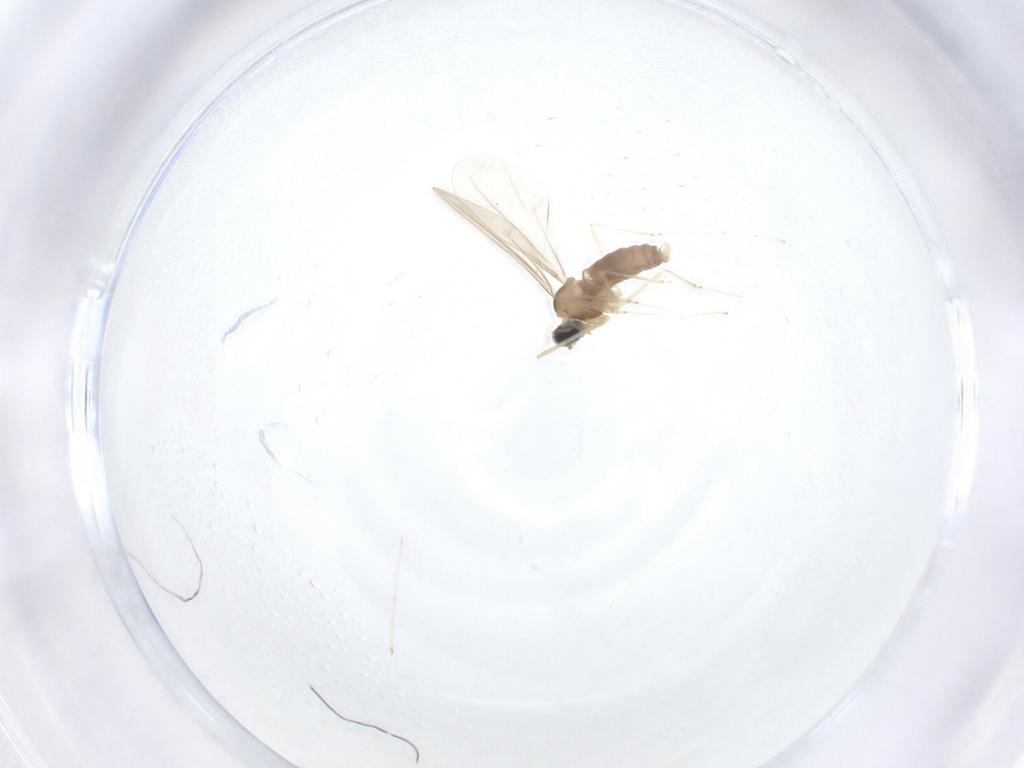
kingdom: Animalia
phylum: Arthropoda
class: Insecta
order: Diptera
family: Cecidomyiidae
